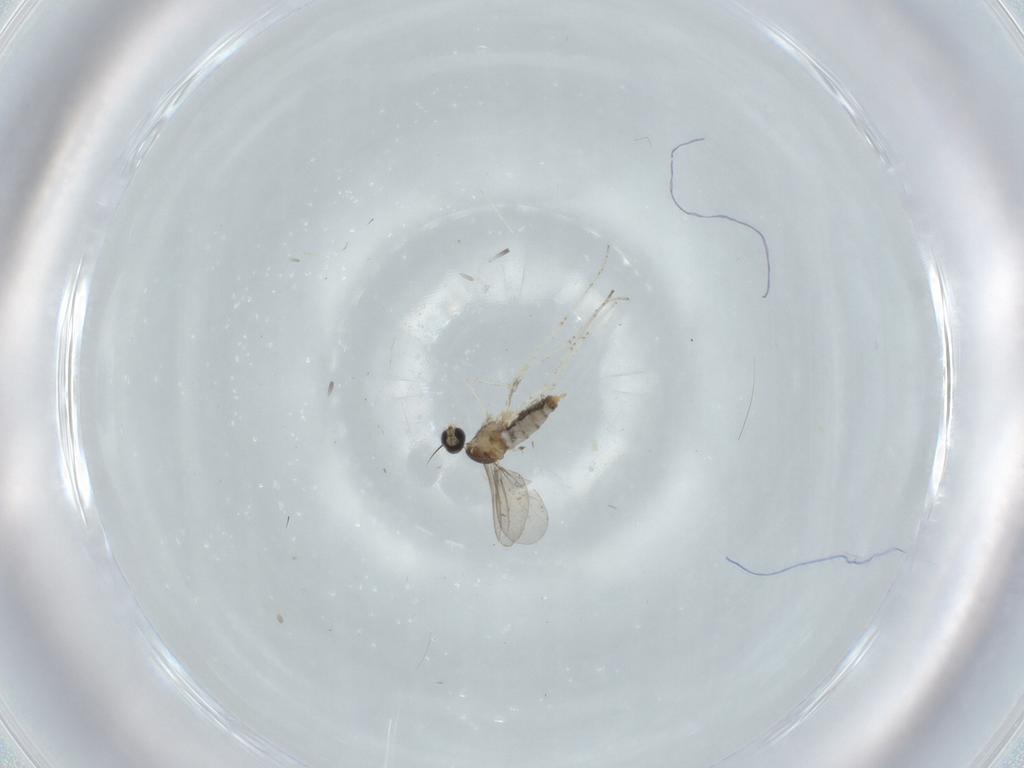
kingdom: Animalia
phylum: Arthropoda
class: Insecta
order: Diptera
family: Cecidomyiidae
